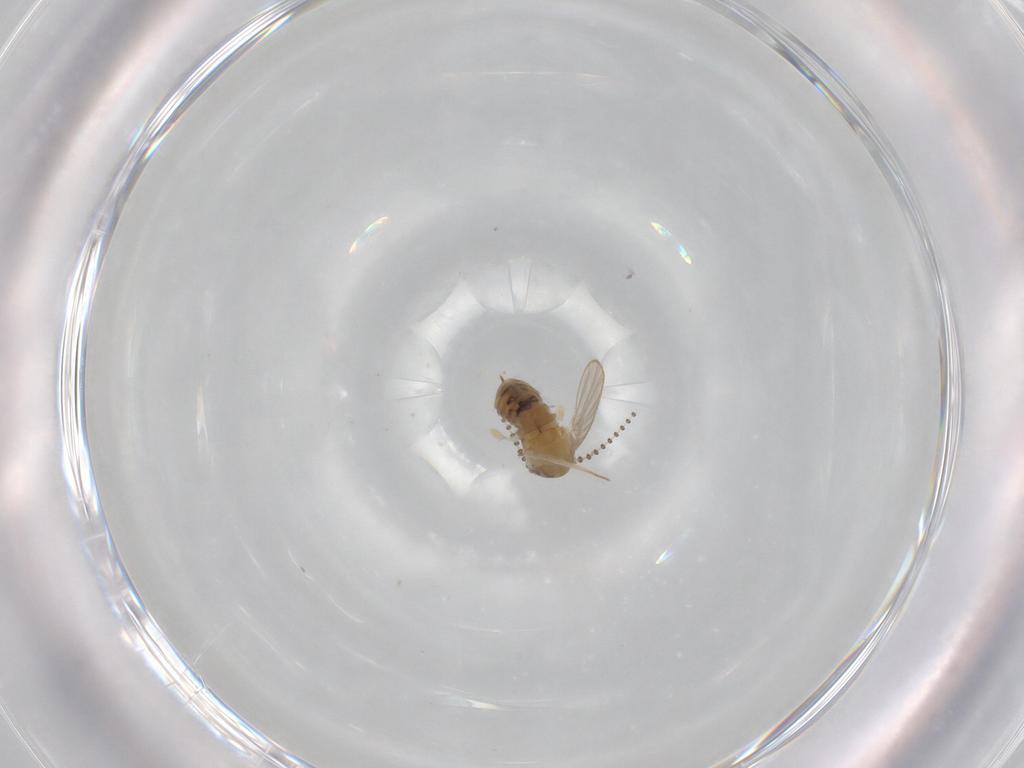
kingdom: Animalia
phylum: Arthropoda
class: Insecta
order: Diptera
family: Psychodidae
